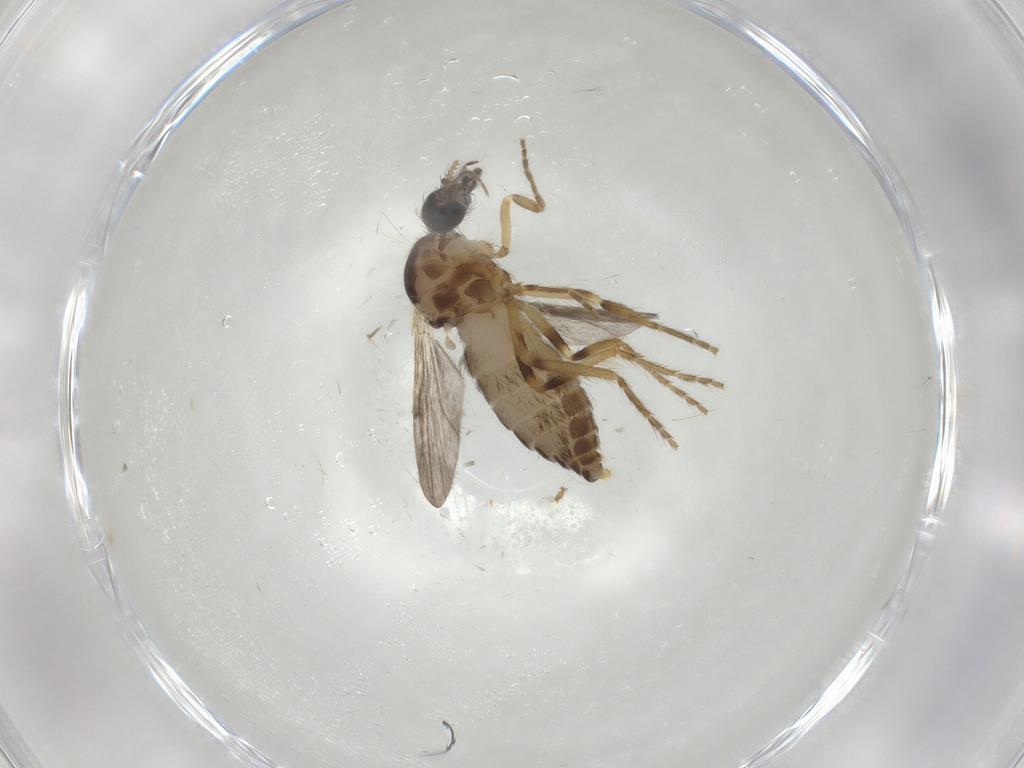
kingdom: Animalia
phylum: Arthropoda
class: Insecta
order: Diptera
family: Ceratopogonidae
